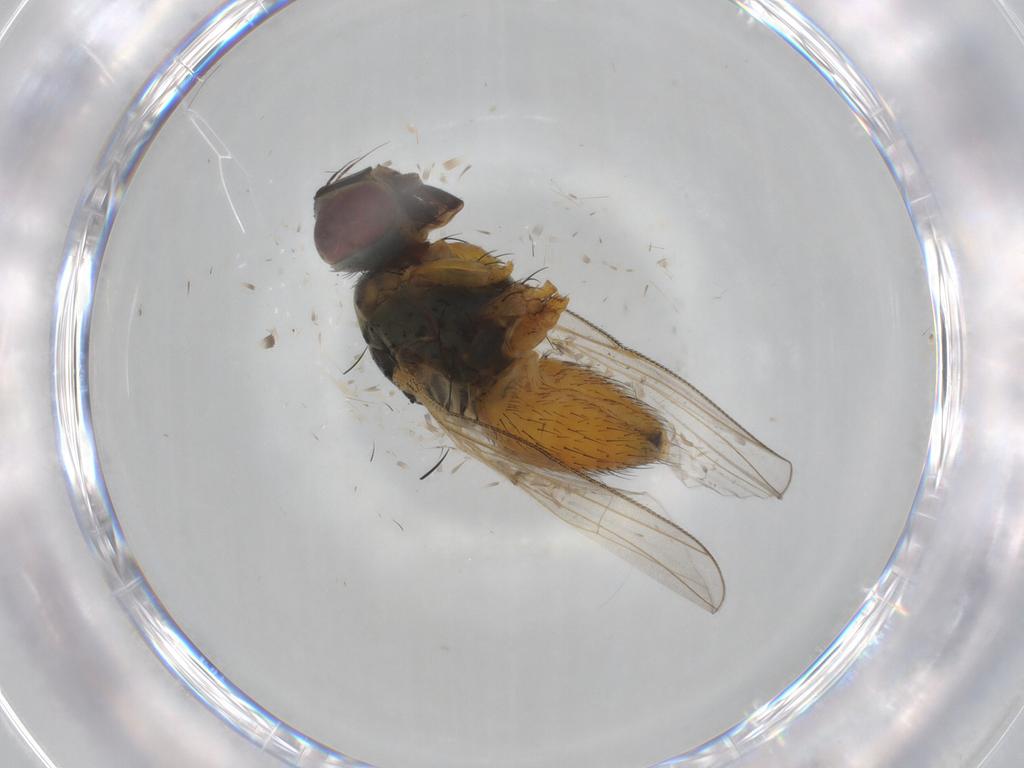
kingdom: Animalia
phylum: Arthropoda
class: Insecta
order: Diptera
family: Muscidae
